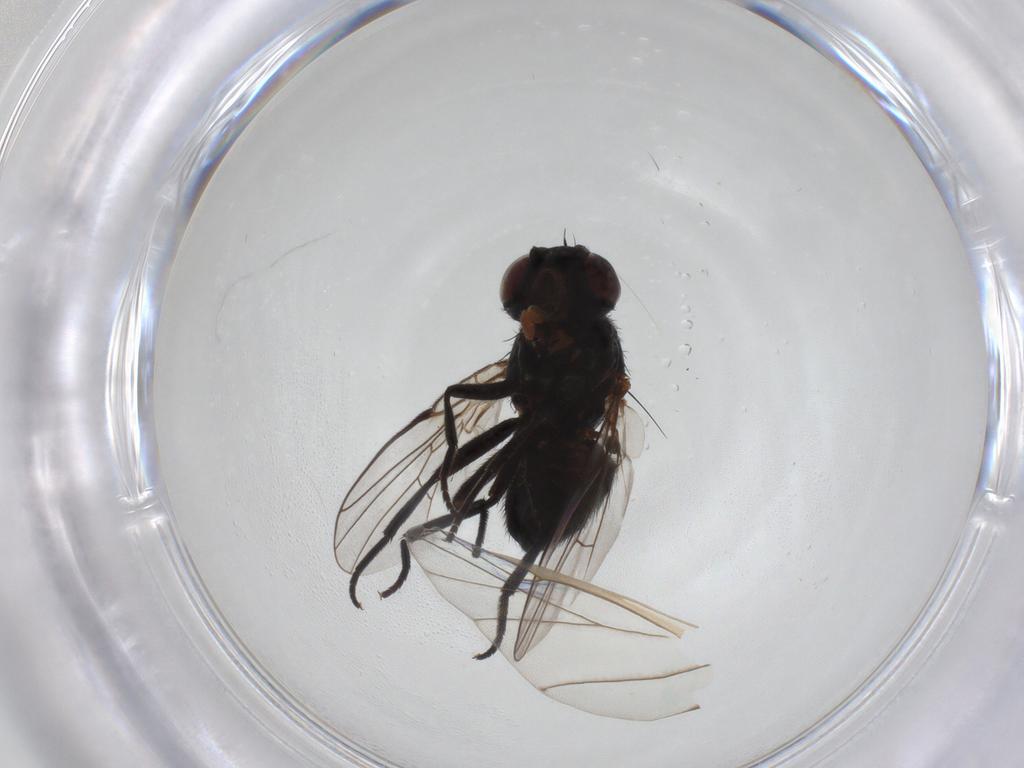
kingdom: Animalia
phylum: Arthropoda
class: Insecta
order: Diptera
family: Agromyzidae
